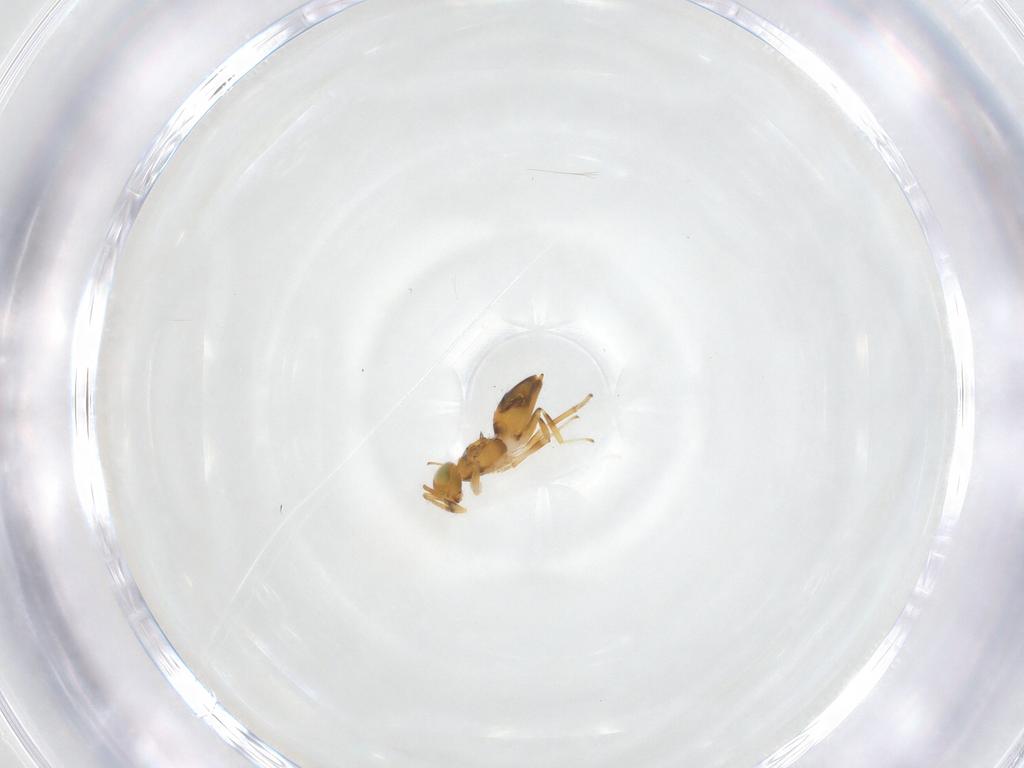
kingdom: Animalia
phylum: Arthropoda
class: Insecta
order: Hymenoptera
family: Encyrtidae
